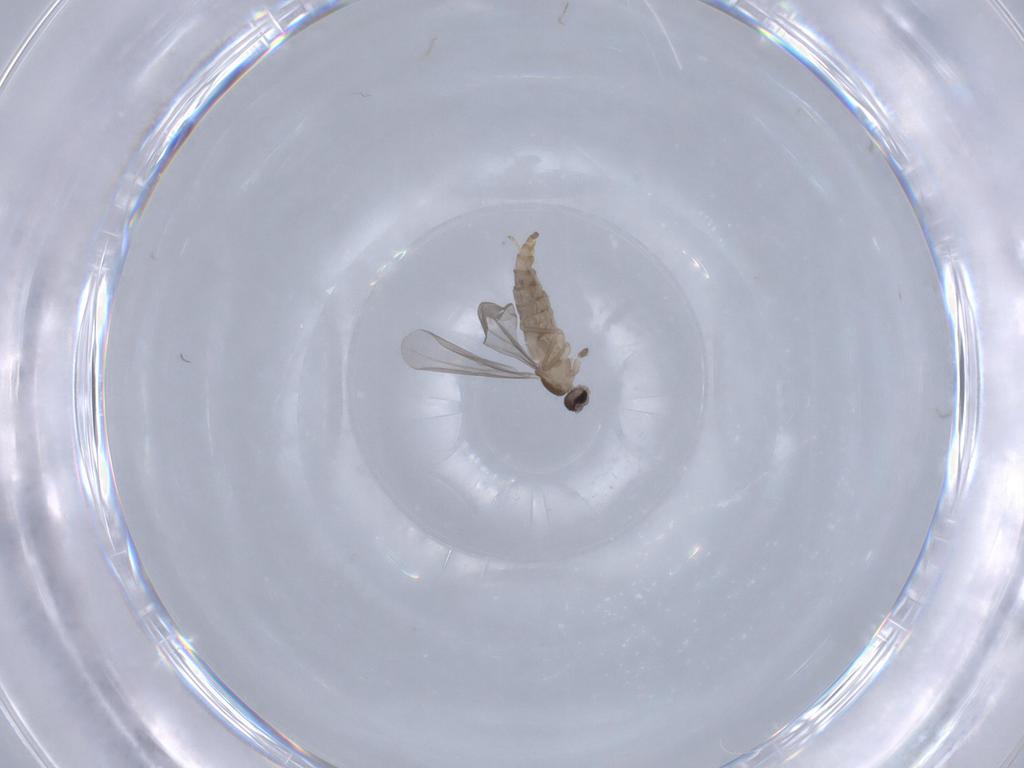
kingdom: Animalia
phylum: Arthropoda
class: Insecta
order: Diptera
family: Cecidomyiidae
